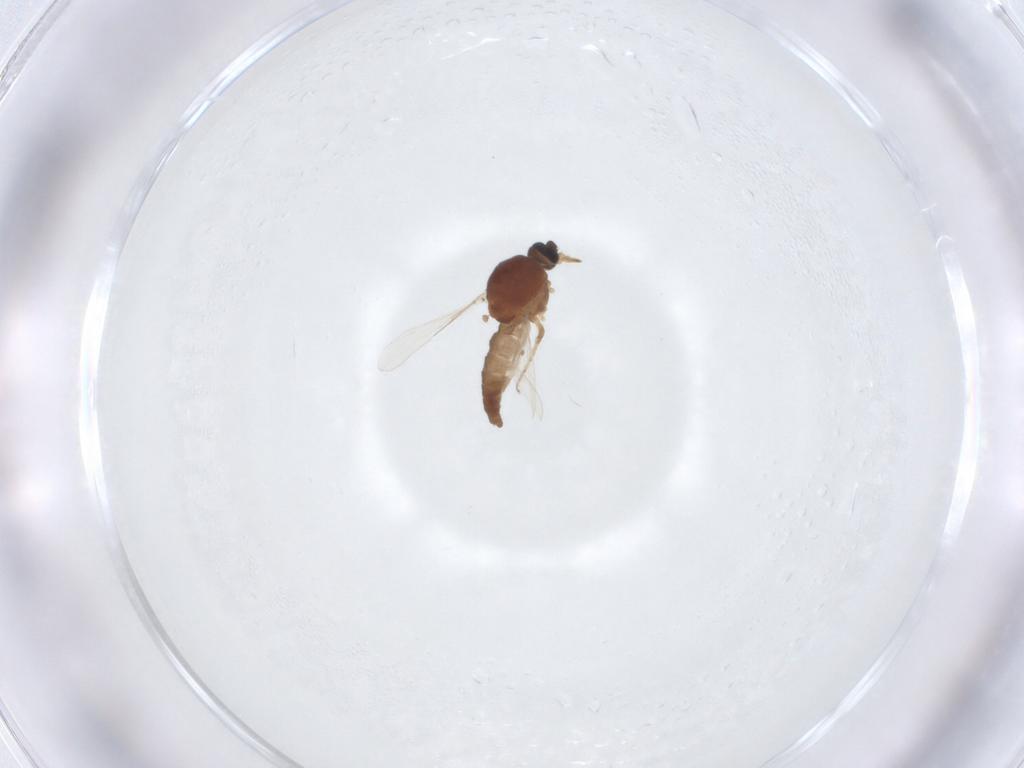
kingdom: Animalia
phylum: Arthropoda
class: Insecta
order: Diptera
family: Ceratopogonidae
